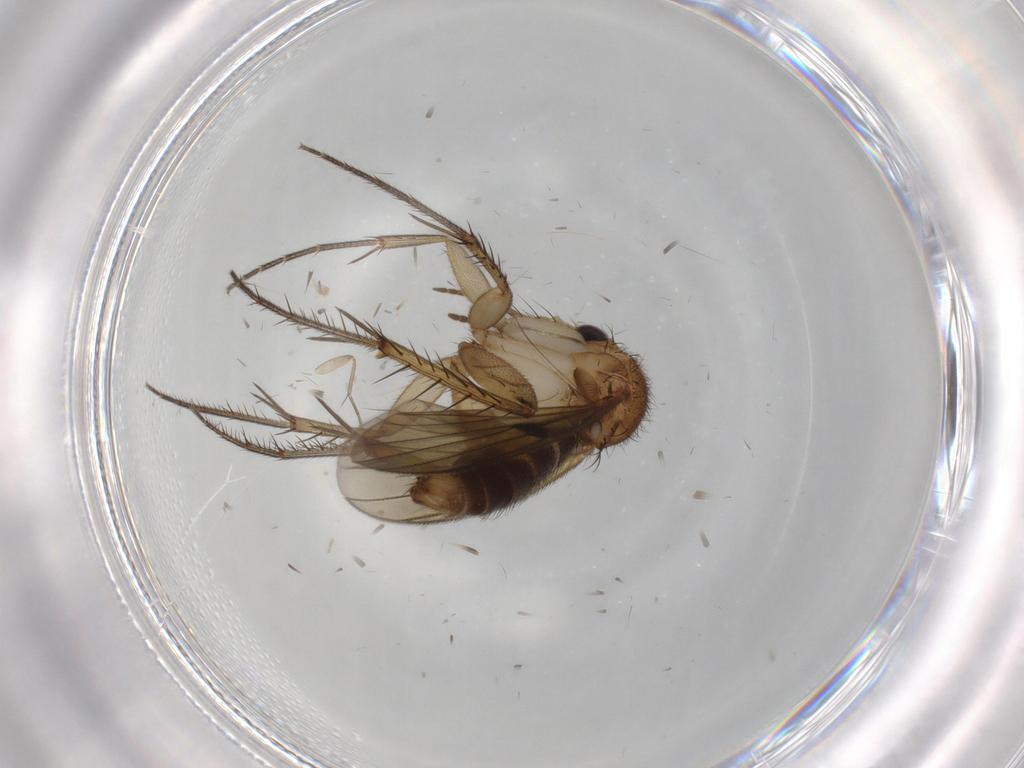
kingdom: Animalia
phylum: Arthropoda
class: Insecta
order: Diptera
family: Mycetophilidae
